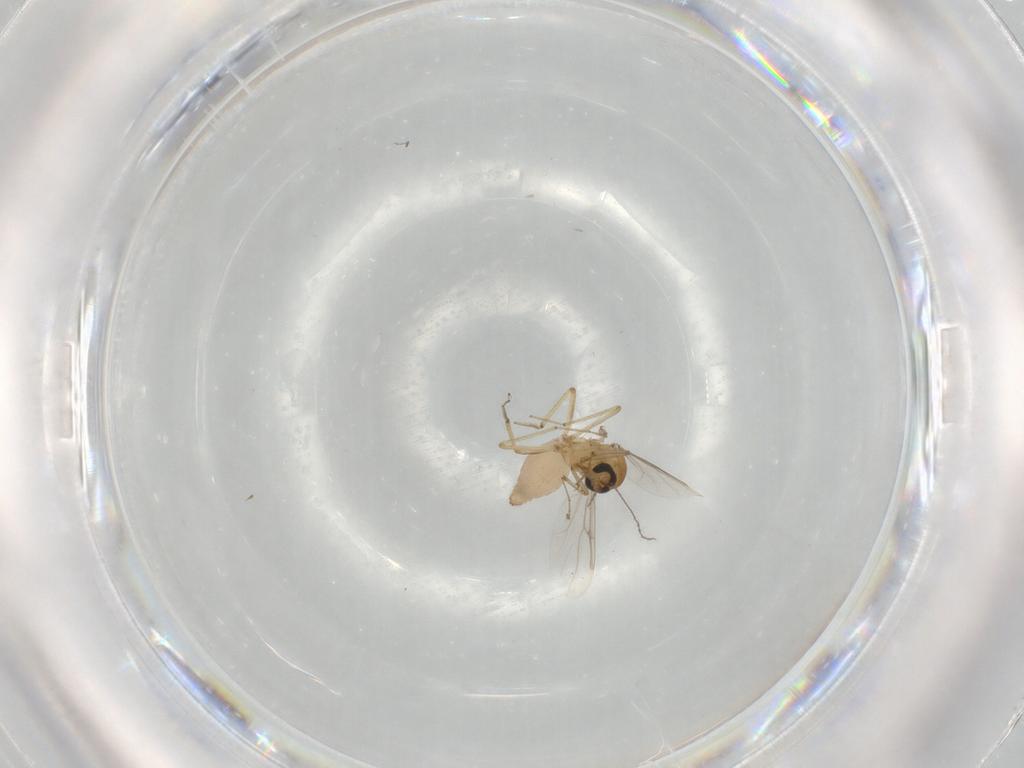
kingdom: Animalia
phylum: Arthropoda
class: Insecta
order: Diptera
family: Ceratopogonidae
